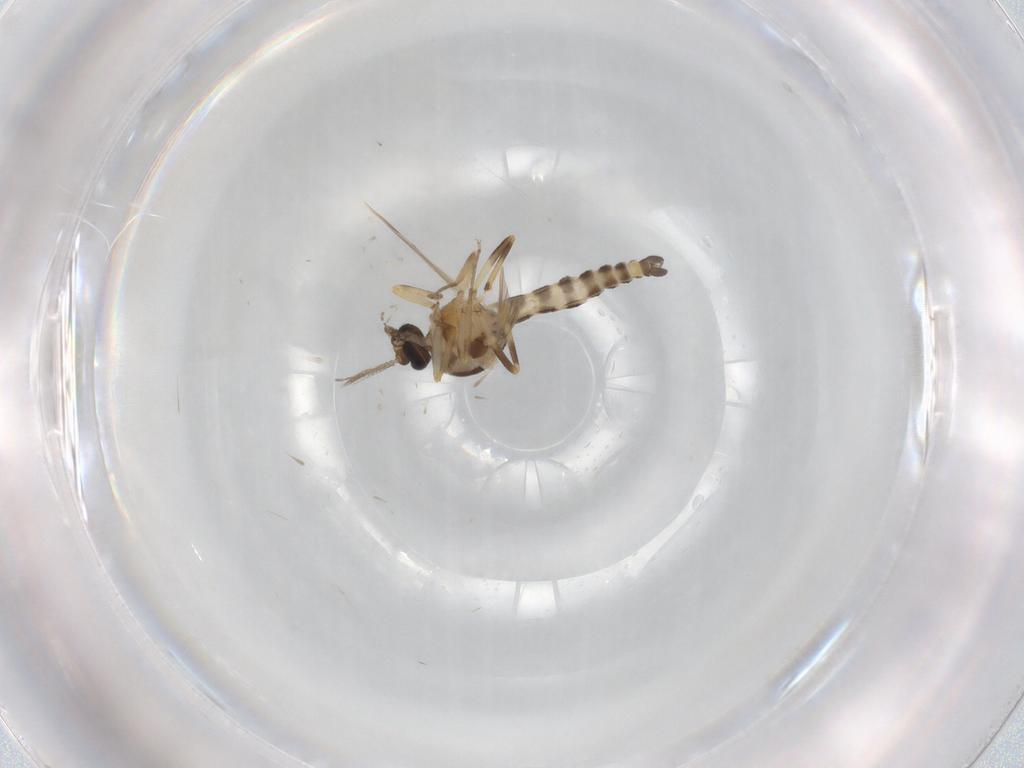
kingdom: Animalia
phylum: Arthropoda
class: Insecta
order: Diptera
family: Ceratopogonidae
